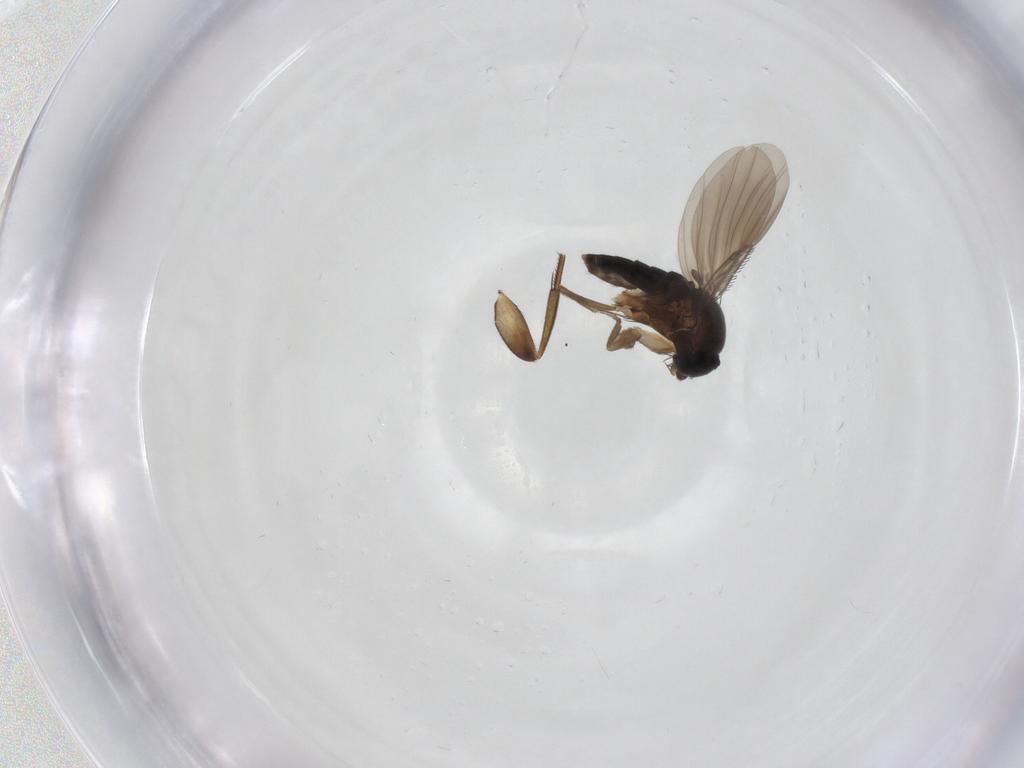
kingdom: Animalia
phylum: Arthropoda
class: Insecta
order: Diptera
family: Phoridae
